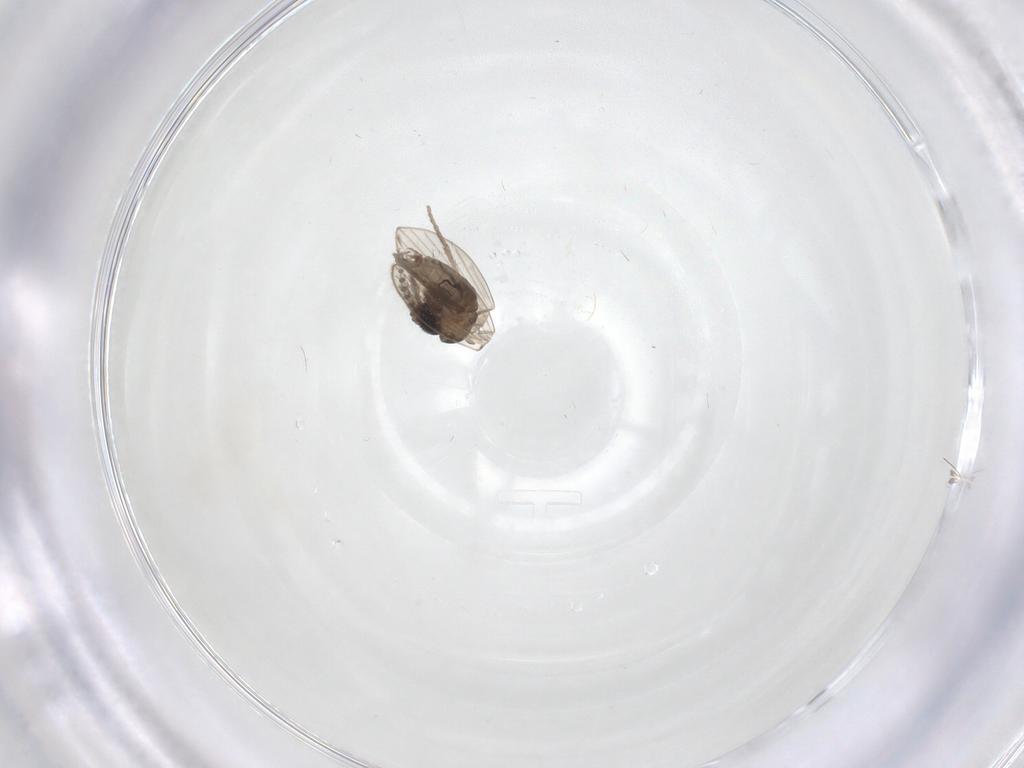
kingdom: Animalia
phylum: Arthropoda
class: Insecta
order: Diptera
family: Psychodidae
